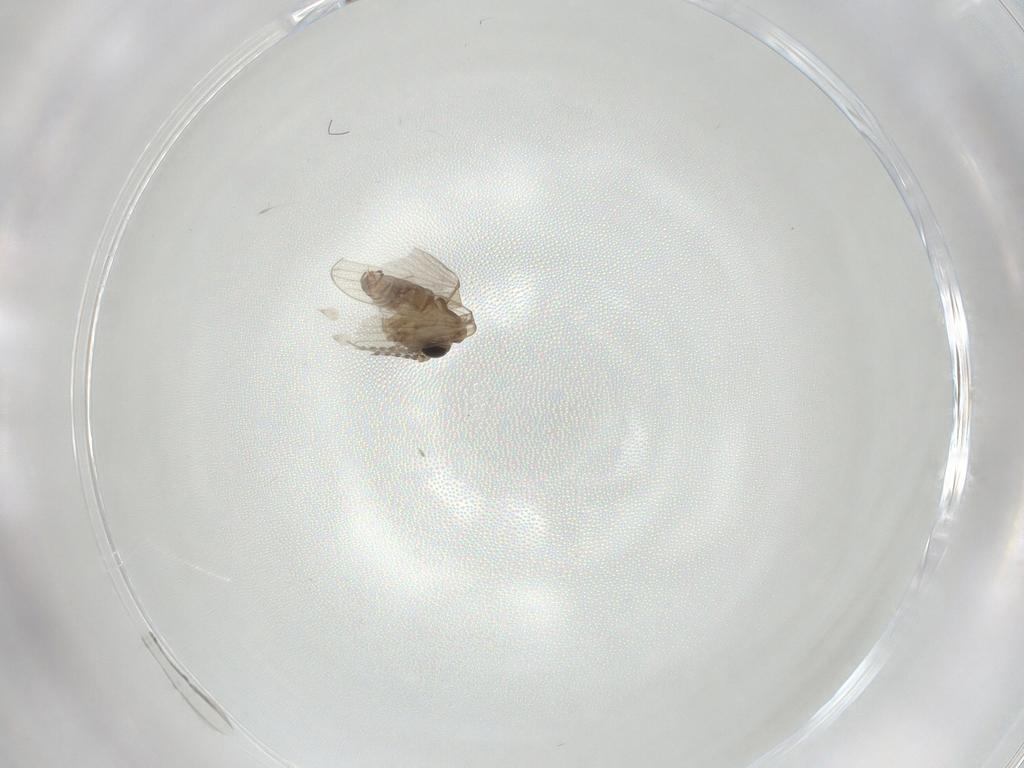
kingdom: Animalia
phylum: Arthropoda
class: Insecta
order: Diptera
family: Psychodidae
